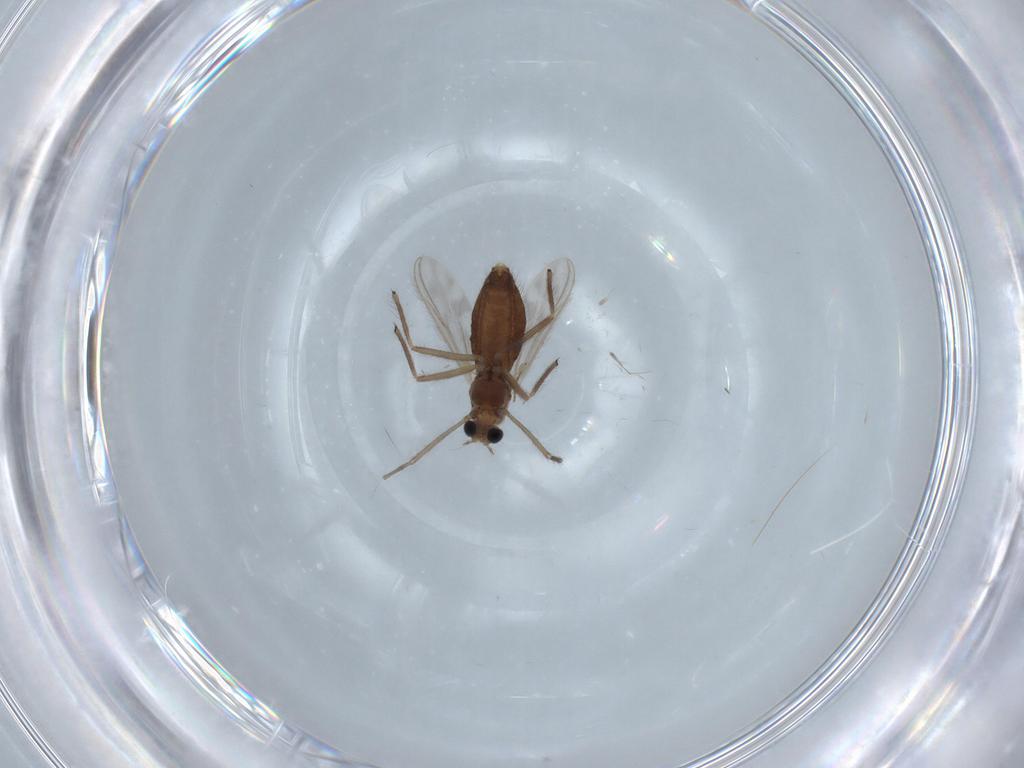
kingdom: Animalia
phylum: Arthropoda
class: Insecta
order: Diptera
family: Chironomidae
